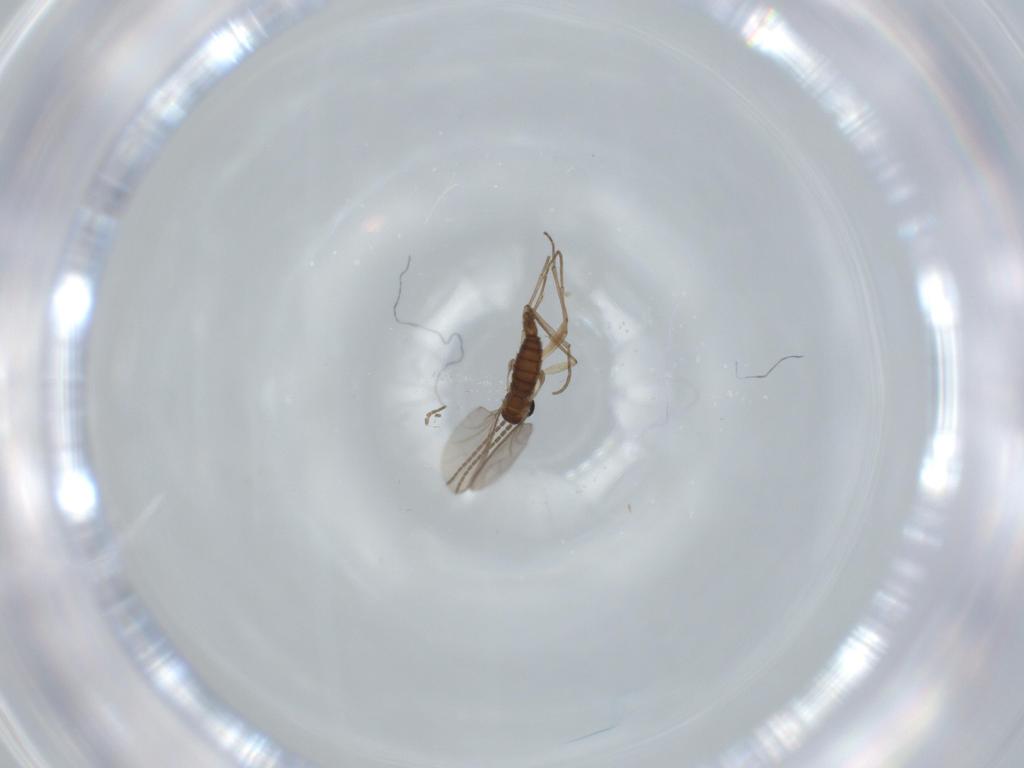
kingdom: Animalia
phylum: Arthropoda
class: Insecta
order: Diptera
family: Sciaridae
